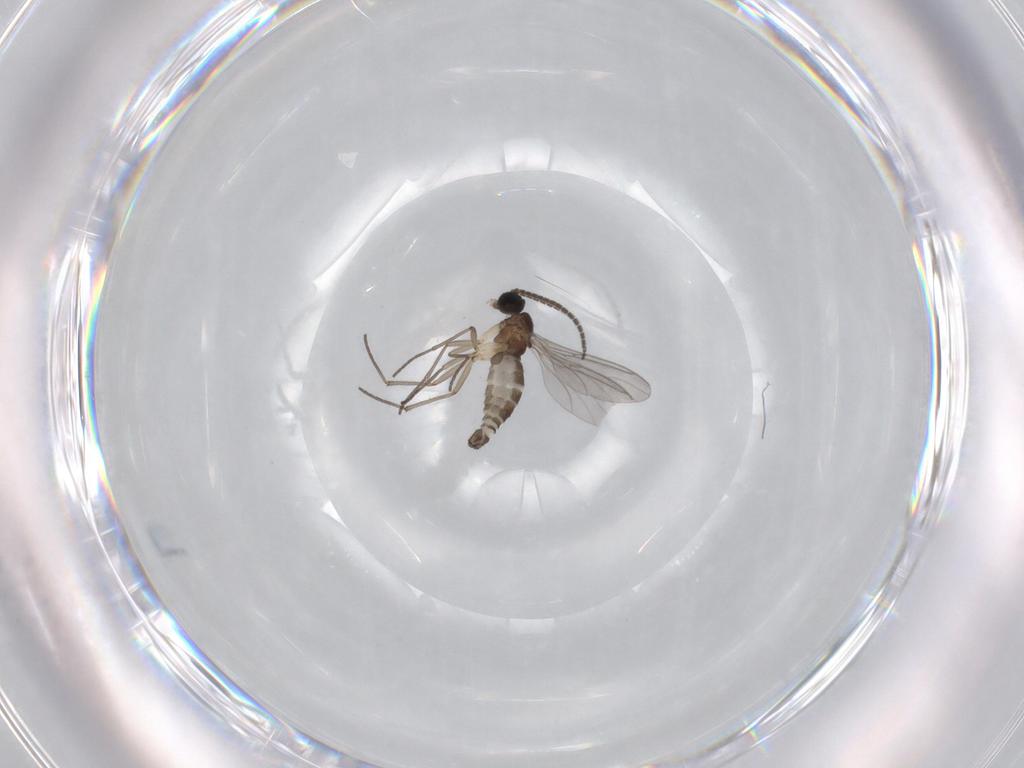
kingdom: Animalia
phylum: Arthropoda
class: Insecta
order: Diptera
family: Sciaridae
